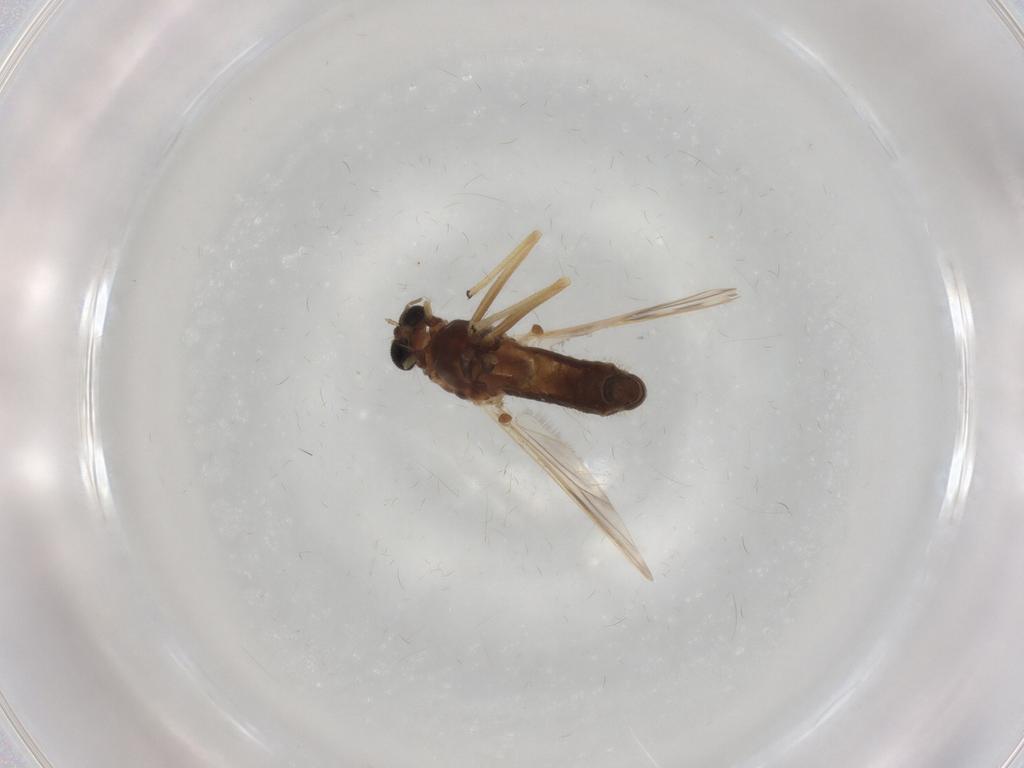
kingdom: Animalia
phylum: Arthropoda
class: Insecta
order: Diptera
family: Chironomidae
